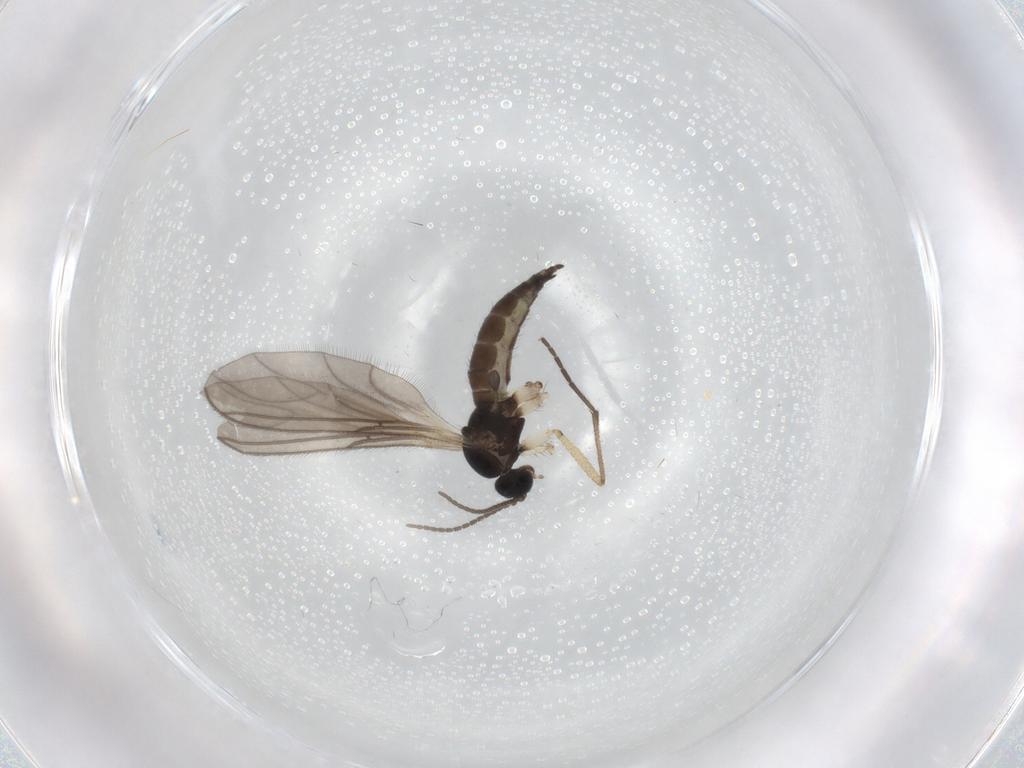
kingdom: Animalia
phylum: Arthropoda
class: Insecta
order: Diptera
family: Sciaridae
